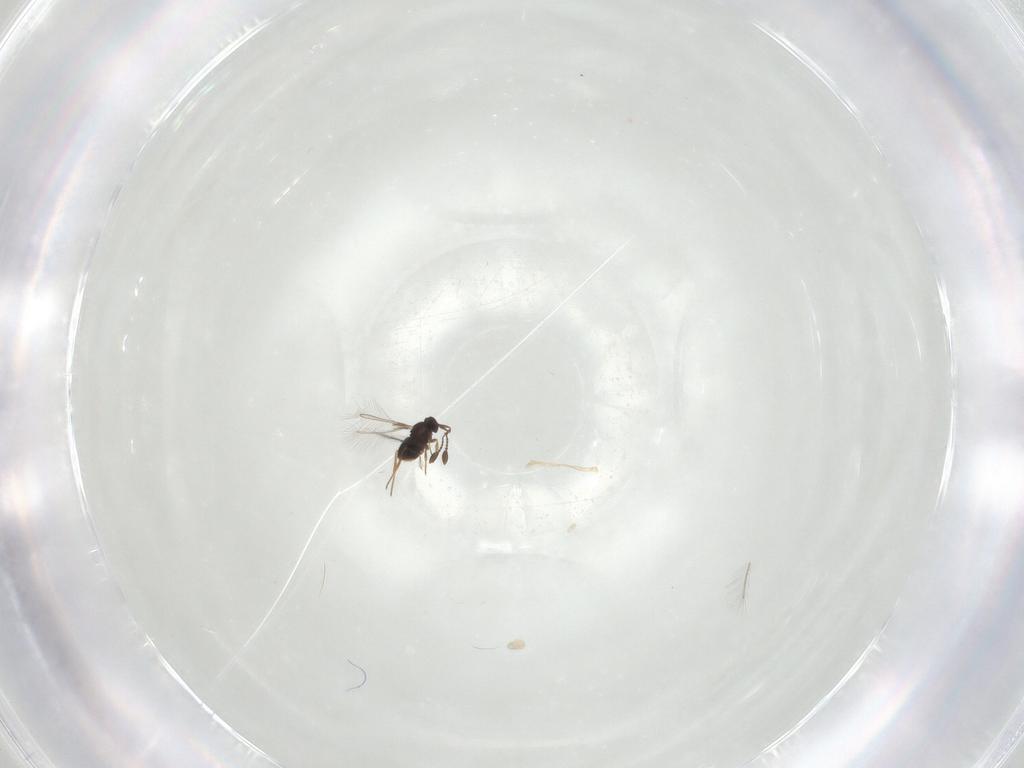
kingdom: Animalia
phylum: Arthropoda
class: Insecta
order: Diptera
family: Cecidomyiidae
